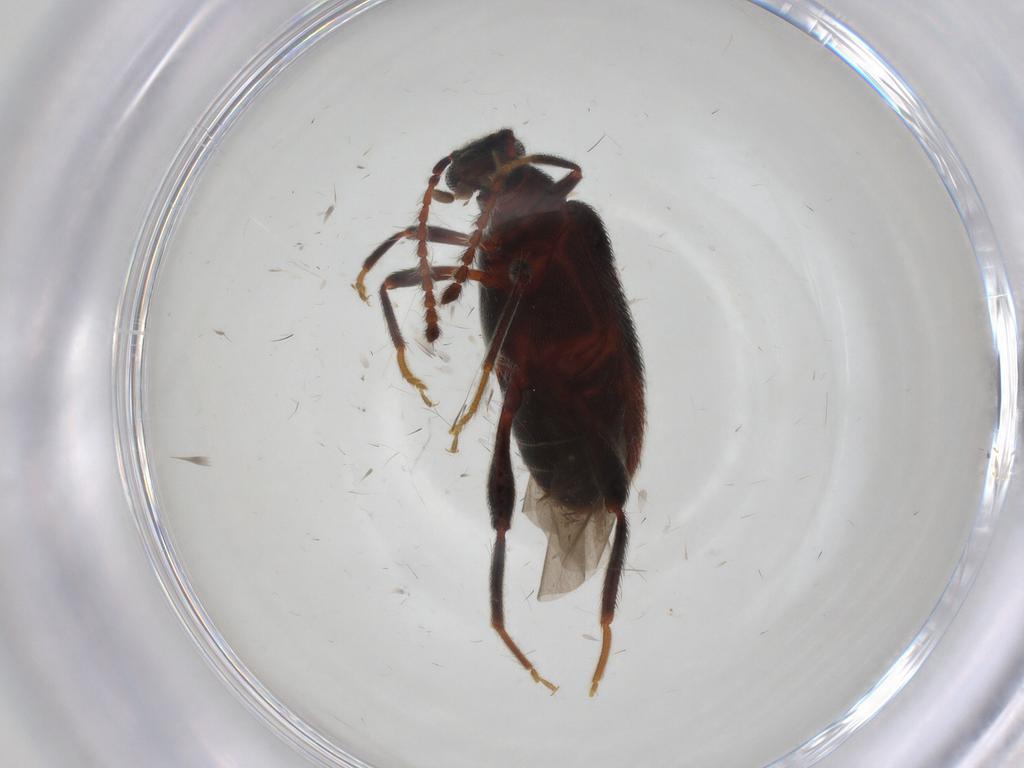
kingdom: Animalia
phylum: Arthropoda
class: Insecta
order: Coleoptera
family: Aderidae
